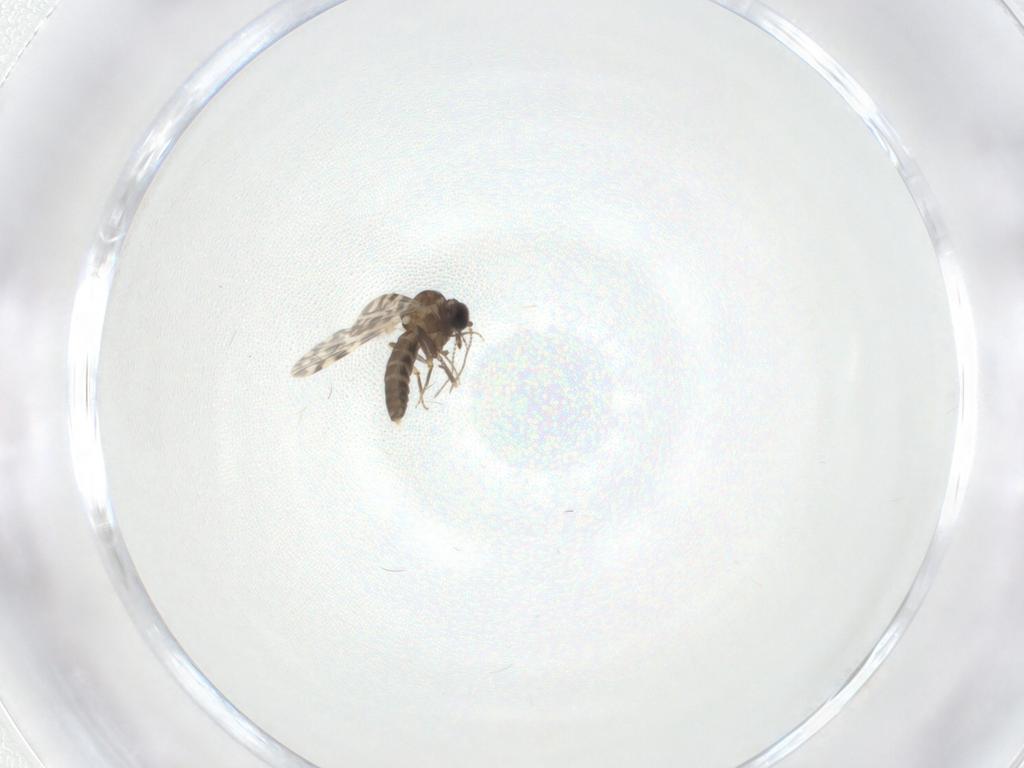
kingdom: Animalia
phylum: Arthropoda
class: Insecta
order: Diptera
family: Ceratopogonidae
